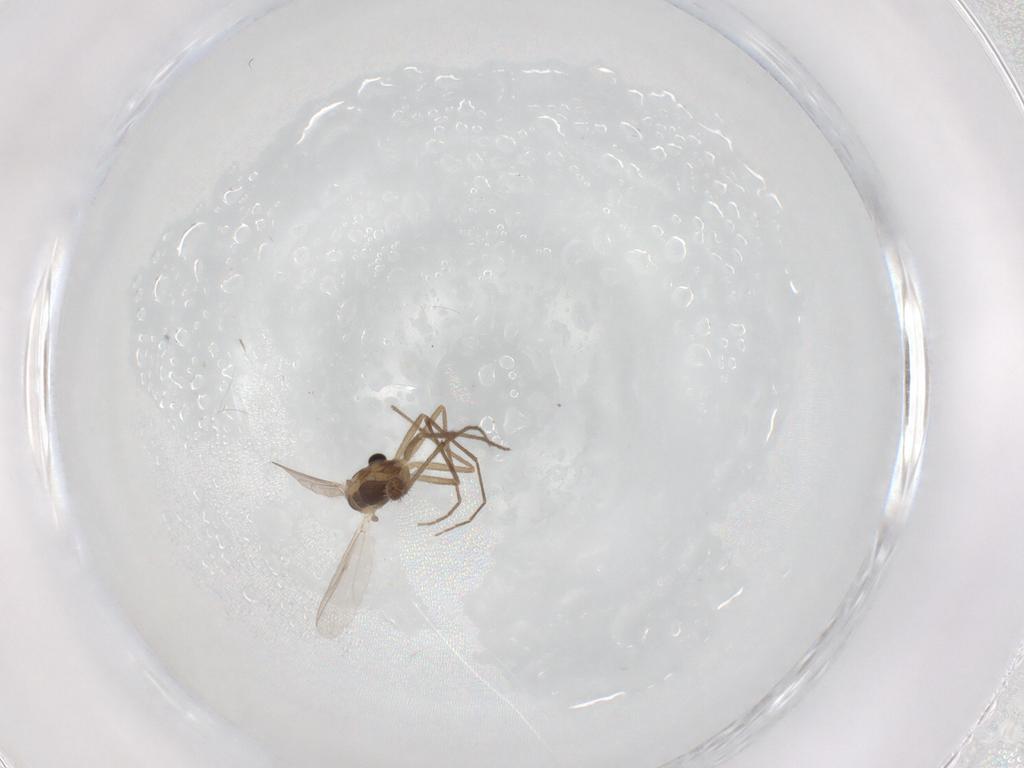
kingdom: Animalia
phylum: Arthropoda
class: Insecta
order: Diptera
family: Chironomidae
